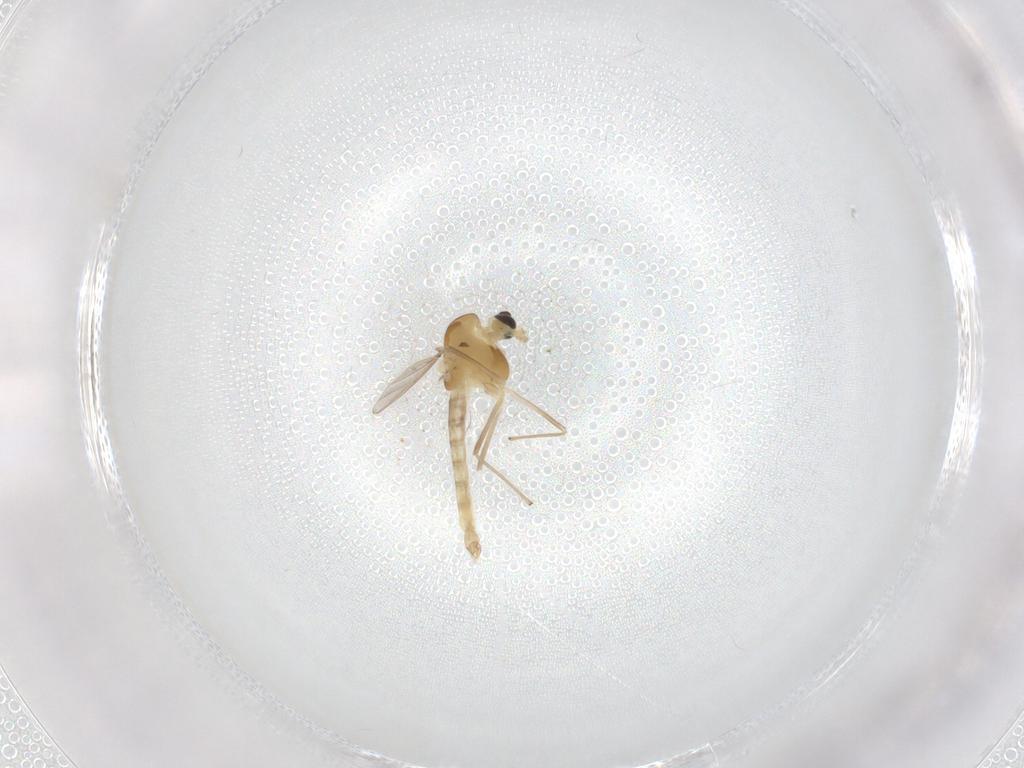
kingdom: Animalia
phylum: Arthropoda
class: Insecta
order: Diptera
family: Chironomidae
